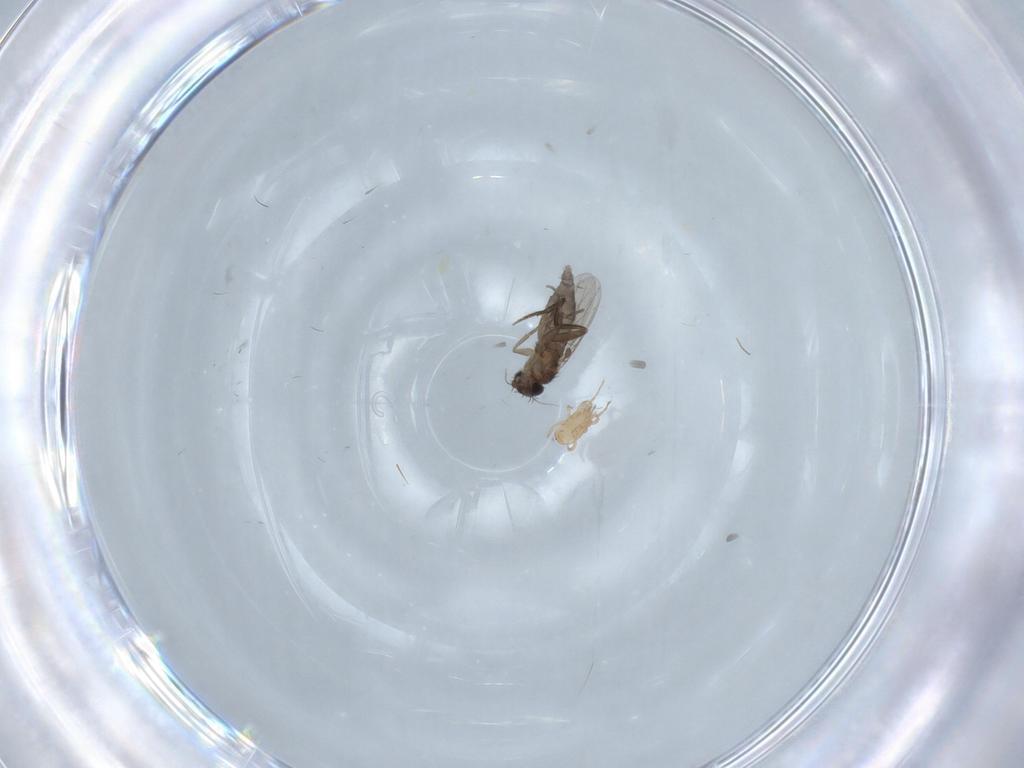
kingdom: Animalia
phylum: Arthropoda
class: Insecta
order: Diptera
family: Phoridae
